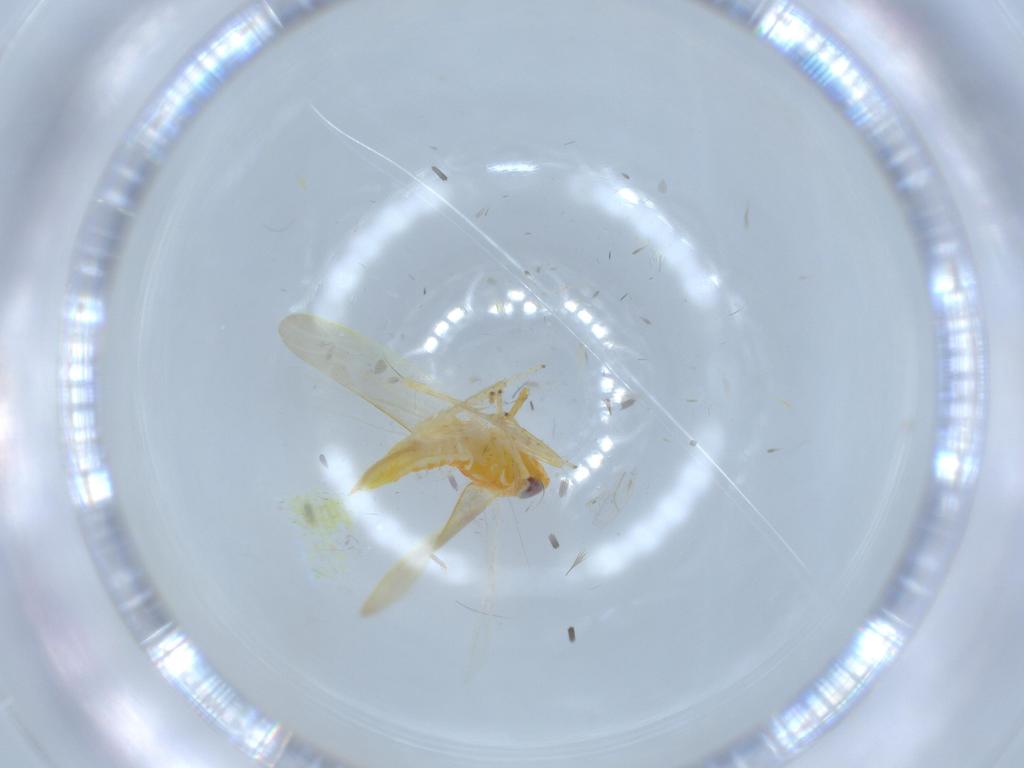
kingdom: Animalia
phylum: Arthropoda
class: Insecta
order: Hemiptera
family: Cicadellidae
